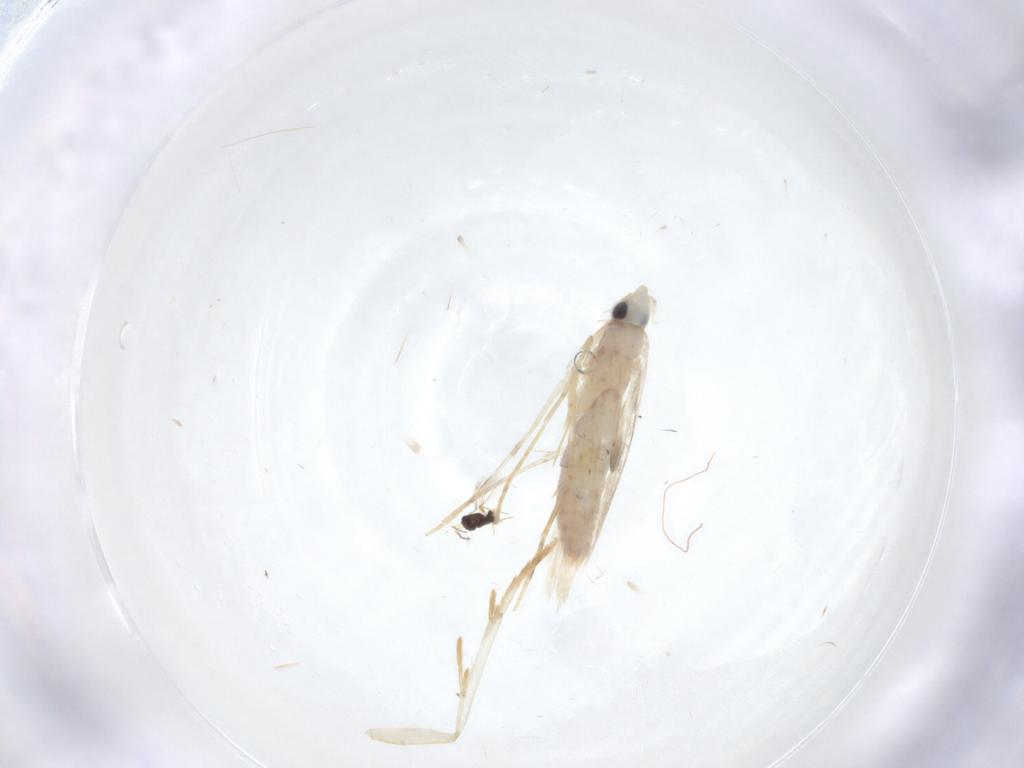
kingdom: Animalia
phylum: Arthropoda
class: Insecta
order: Lepidoptera
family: Tineidae
